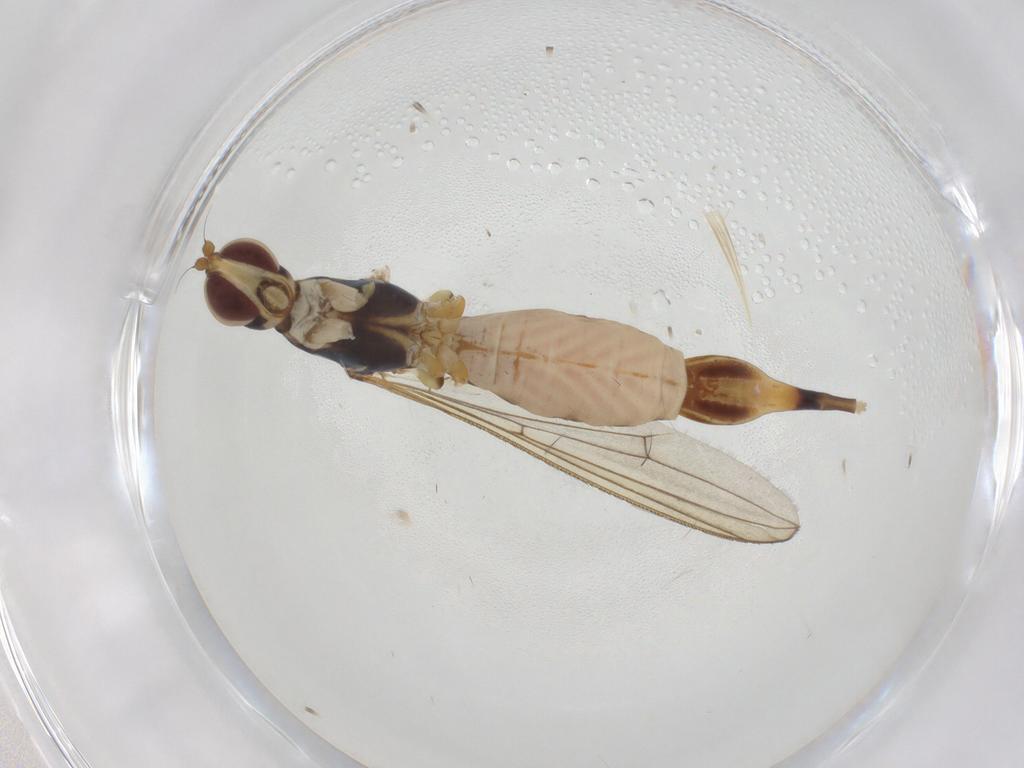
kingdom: Animalia
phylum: Arthropoda
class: Insecta
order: Diptera
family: Micropezidae
